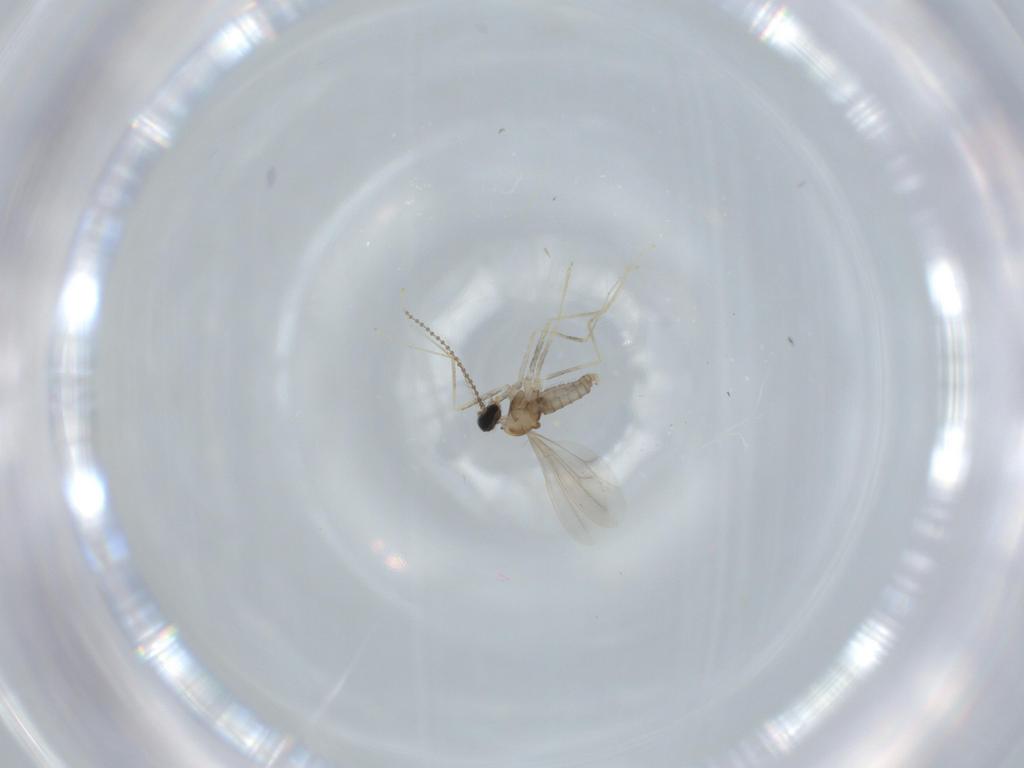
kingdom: Animalia
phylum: Arthropoda
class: Insecta
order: Diptera
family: Cecidomyiidae
